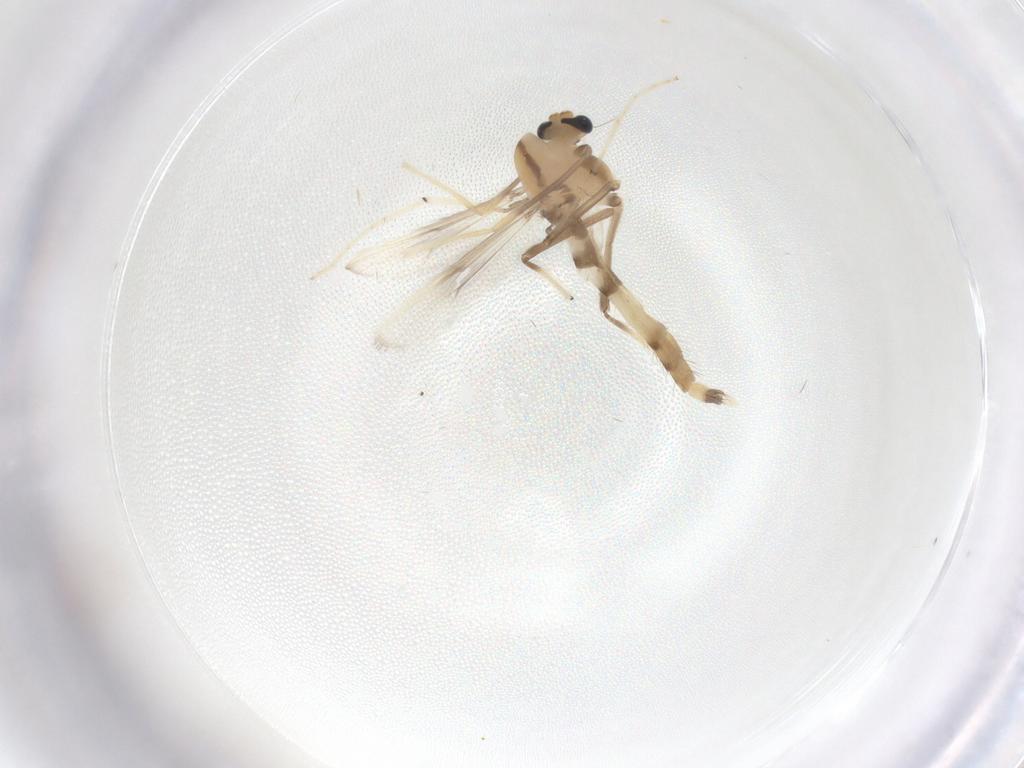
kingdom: Animalia
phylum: Arthropoda
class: Insecta
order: Diptera
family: Chironomidae
